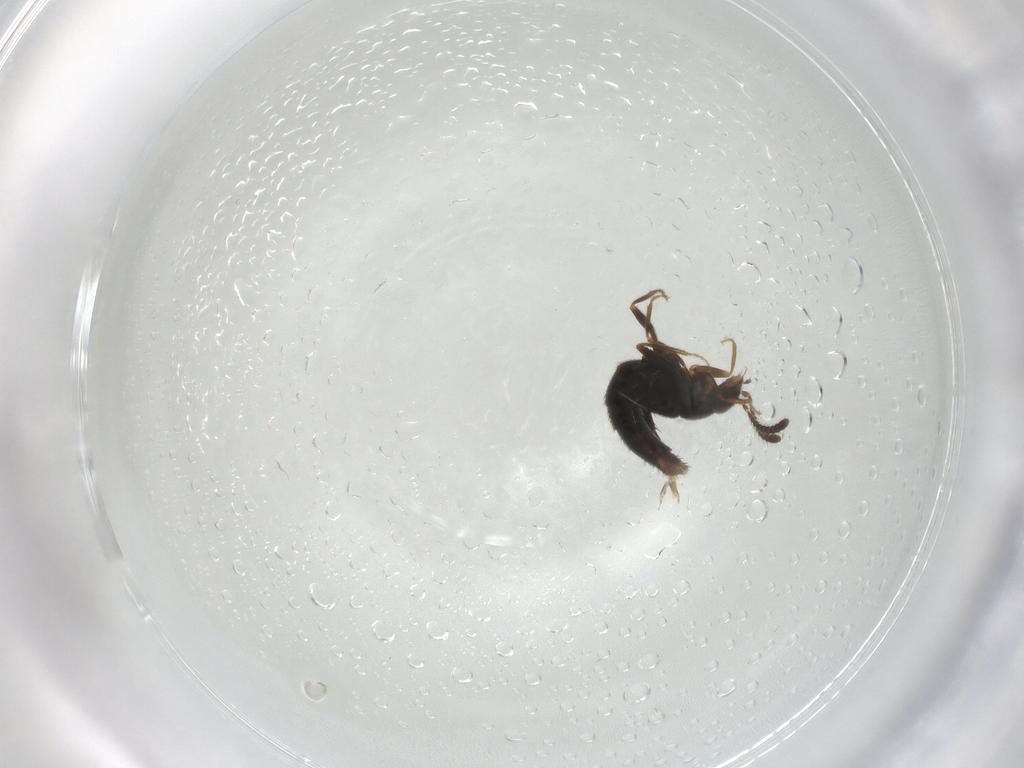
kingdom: Animalia
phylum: Arthropoda
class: Insecta
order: Coleoptera
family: Staphylinidae
